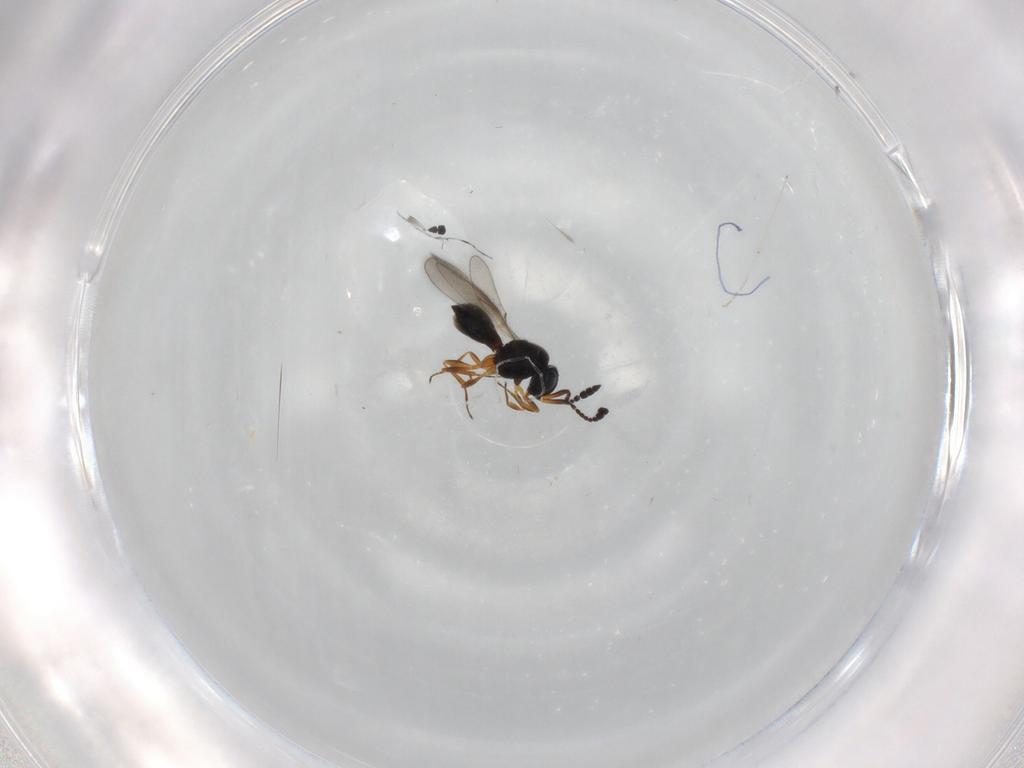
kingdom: Animalia
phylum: Arthropoda
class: Insecta
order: Hymenoptera
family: Scelionidae
